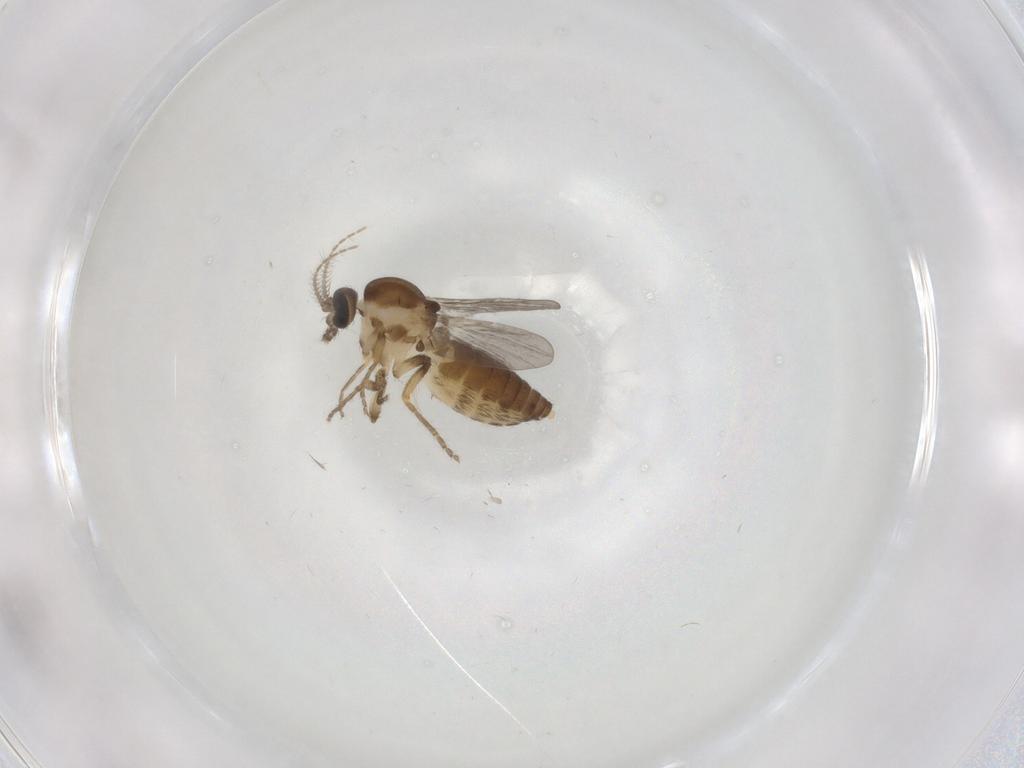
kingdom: Animalia
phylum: Arthropoda
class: Insecta
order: Diptera
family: Ceratopogonidae
